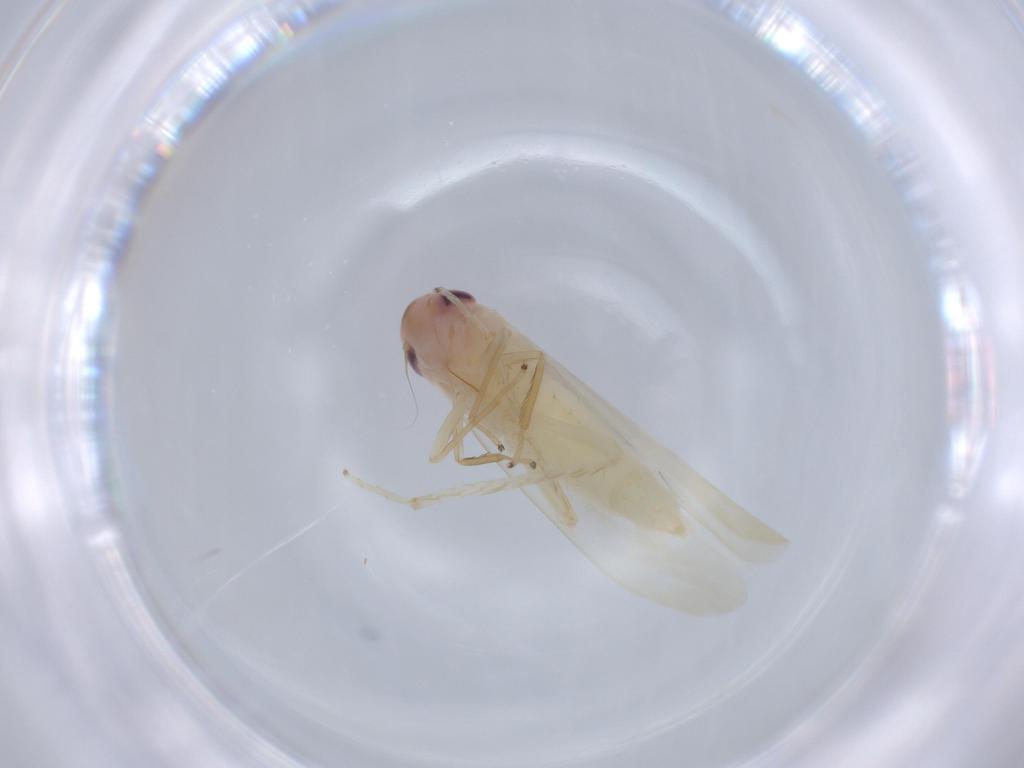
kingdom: Animalia
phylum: Arthropoda
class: Insecta
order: Hemiptera
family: Cicadellidae
